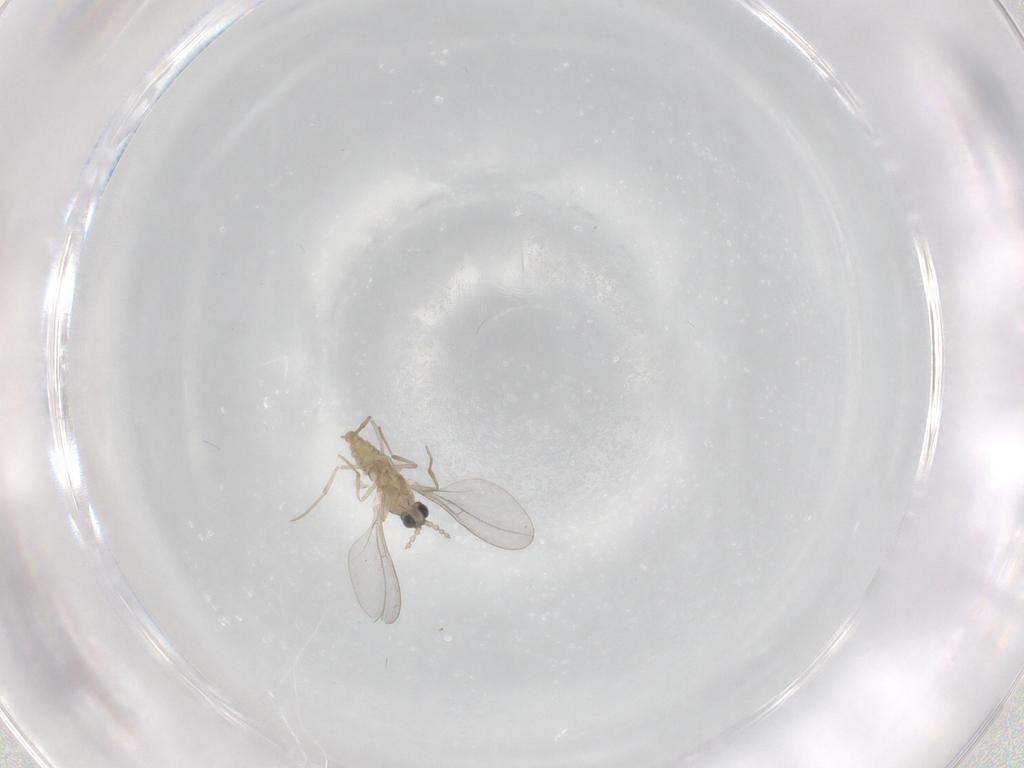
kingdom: Animalia
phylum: Arthropoda
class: Insecta
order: Diptera
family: Cecidomyiidae
